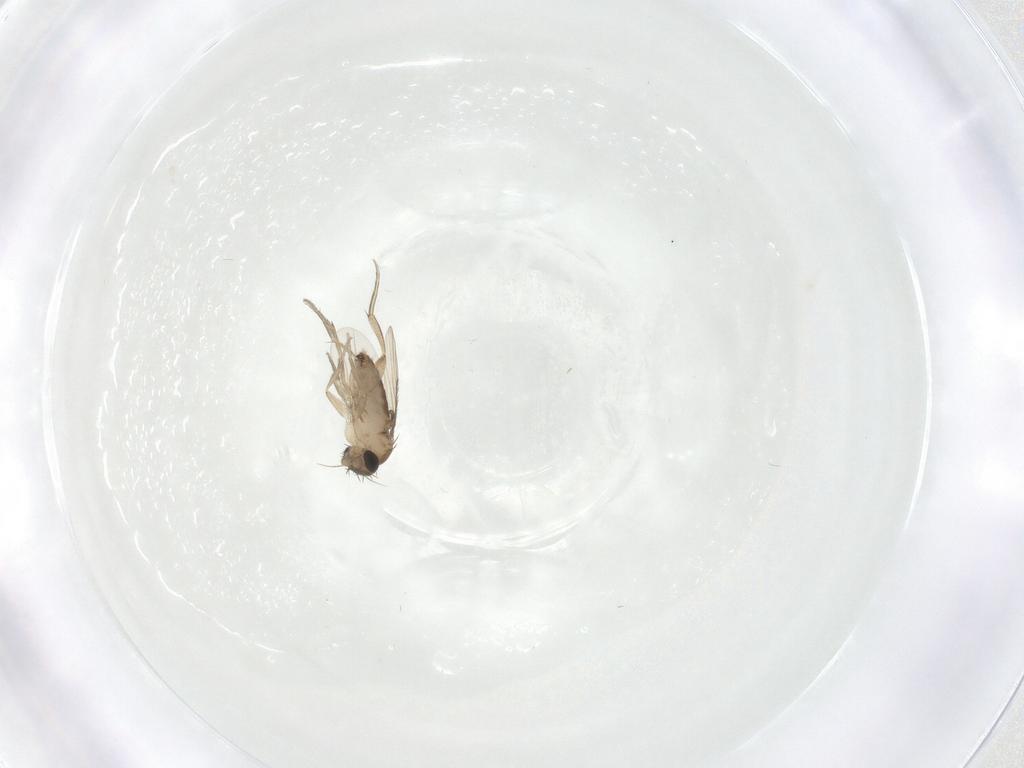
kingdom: Animalia
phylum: Arthropoda
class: Insecta
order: Diptera
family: Phoridae
